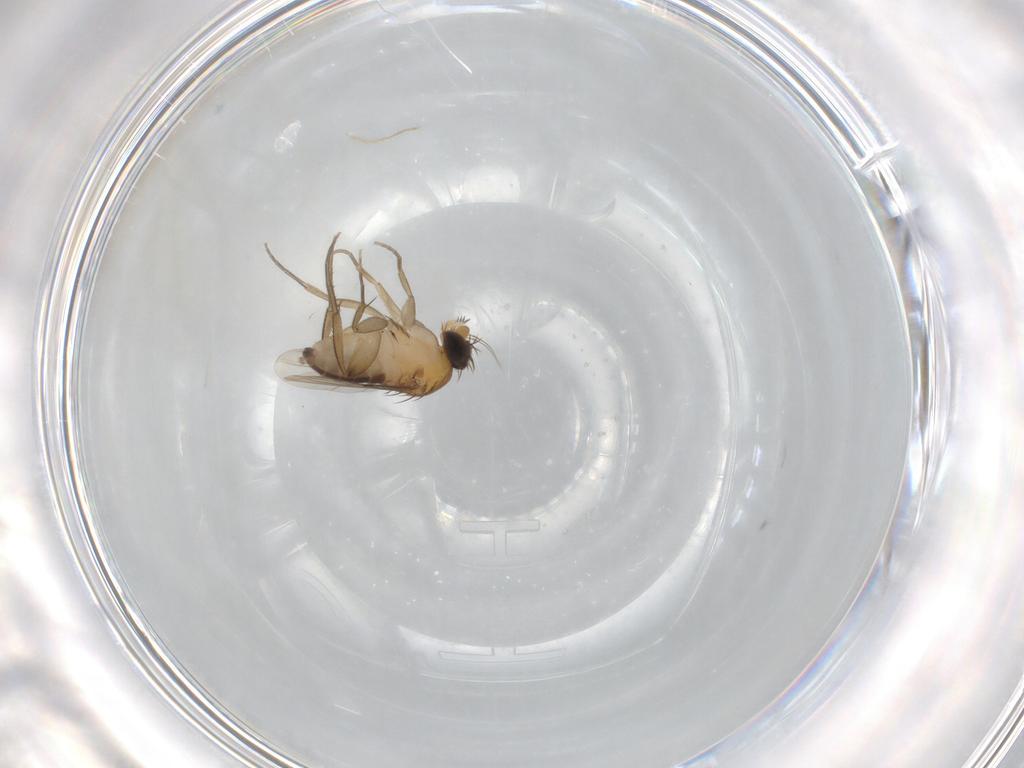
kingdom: Animalia
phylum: Arthropoda
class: Insecta
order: Diptera
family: Phoridae
